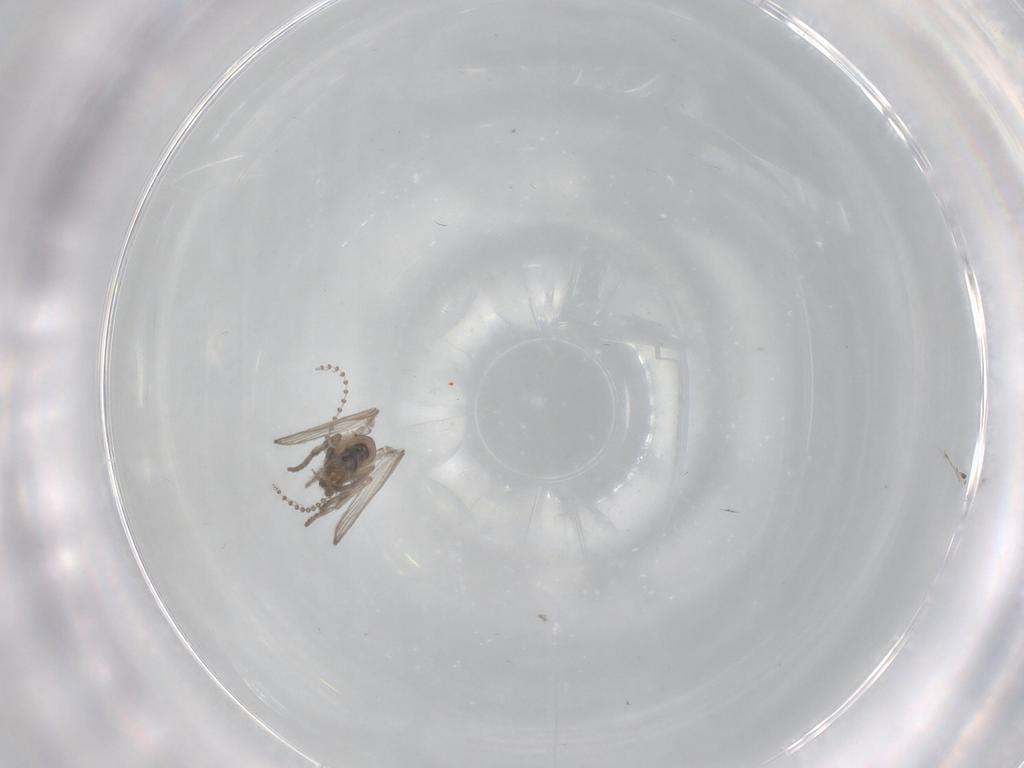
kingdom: Animalia
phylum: Arthropoda
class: Insecta
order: Diptera
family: Psychodidae
